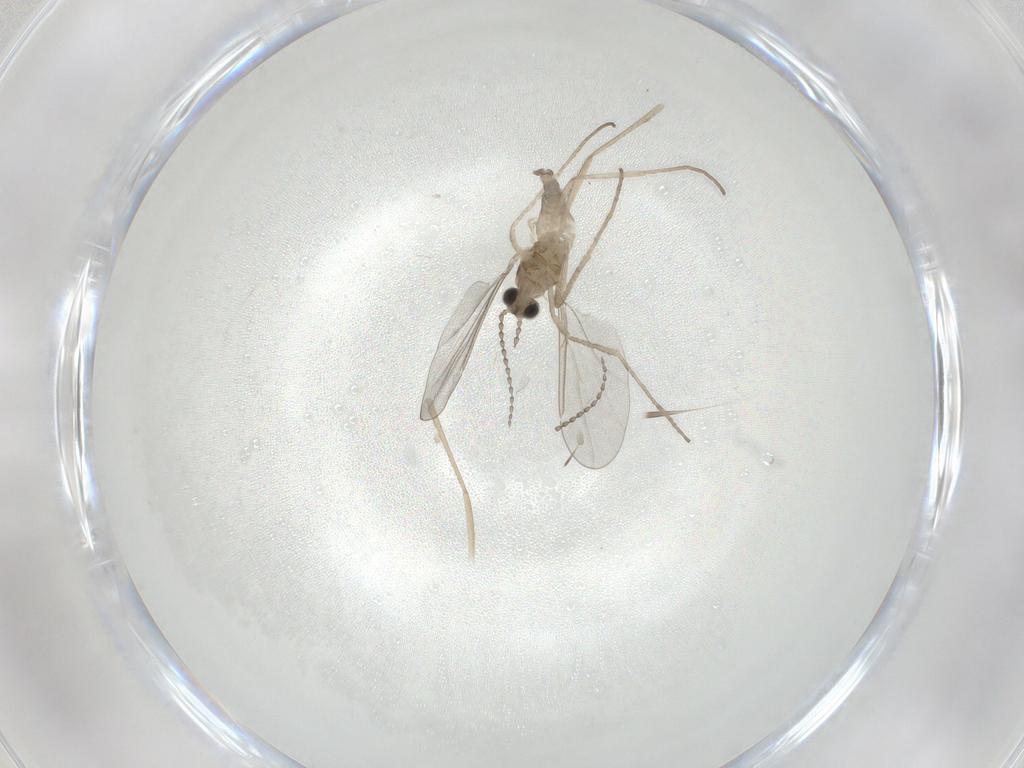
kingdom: Animalia
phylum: Arthropoda
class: Insecta
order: Diptera
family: Cecidomyiidae
